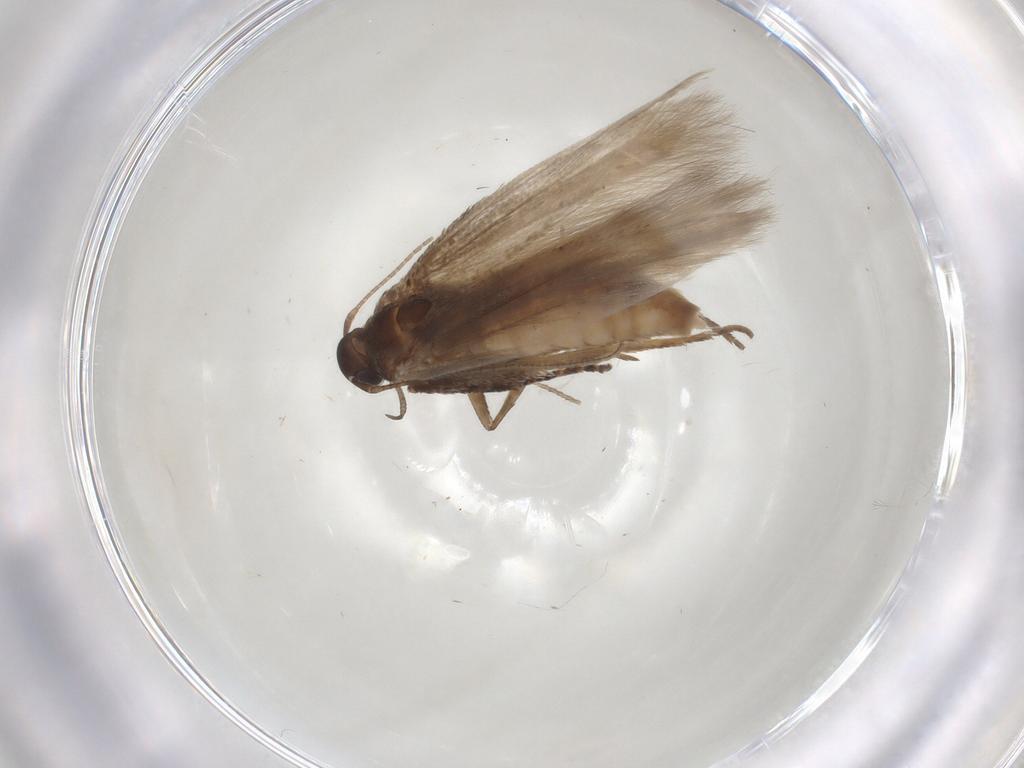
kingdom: Animalia
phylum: Arthropoda
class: Insecta
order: Lepidoptera
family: Gelechiidae
